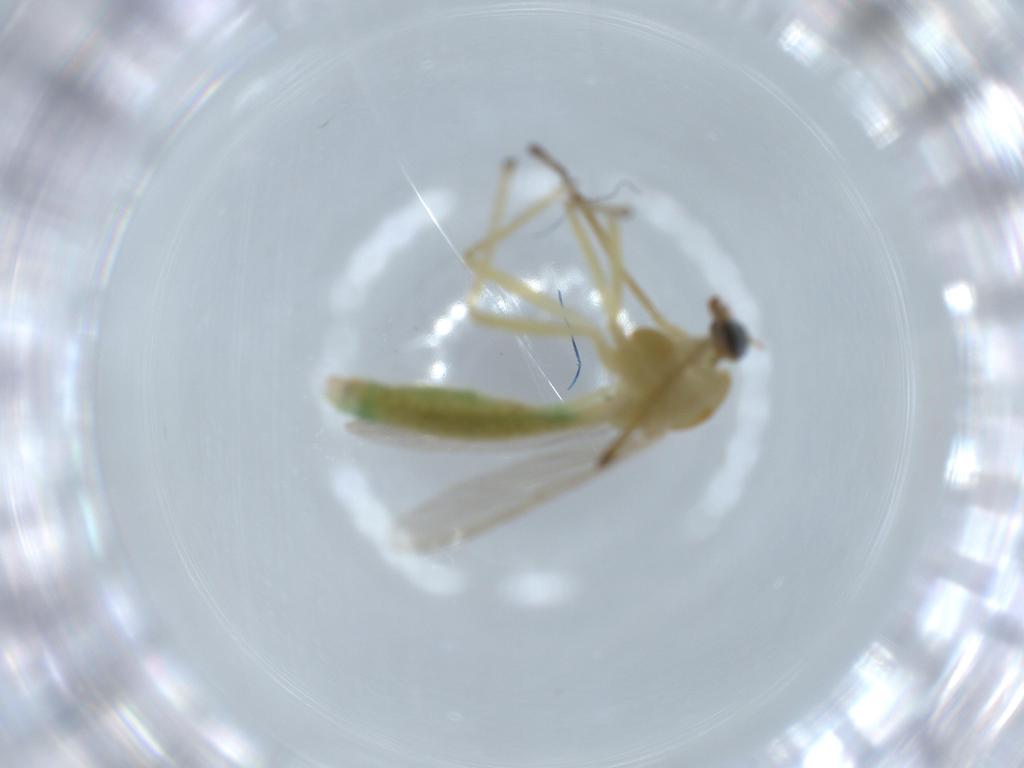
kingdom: Animalia
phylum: Arthropoda
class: Insecta
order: Diptera
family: Chironomidae
